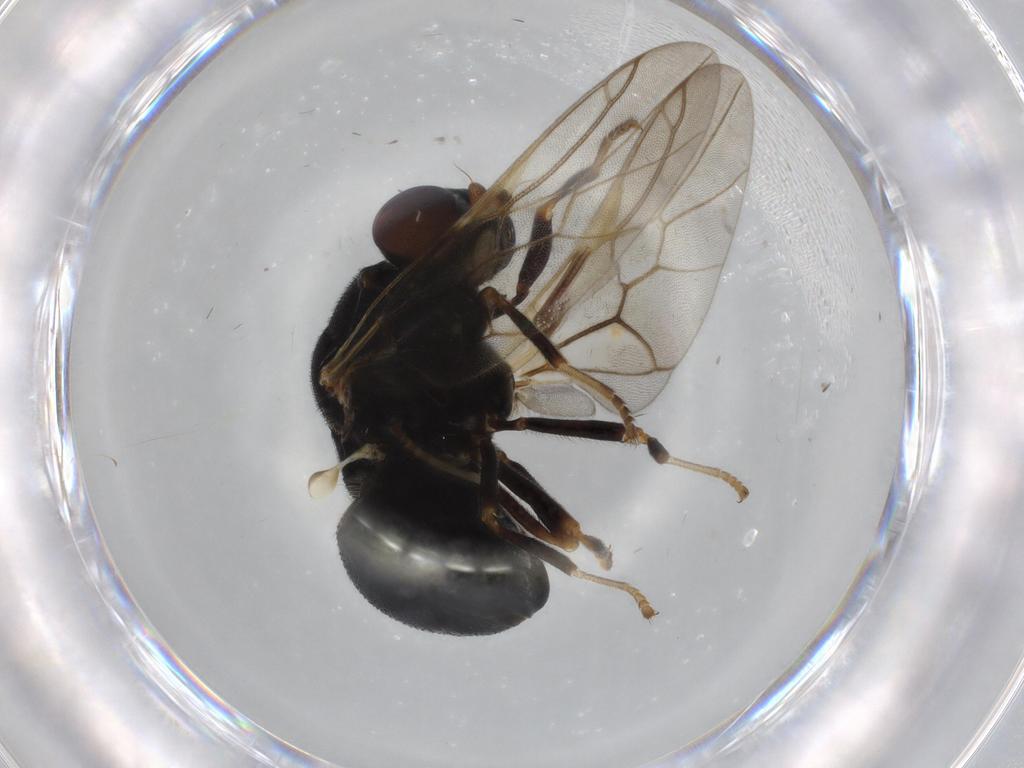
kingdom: Animalia
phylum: Arthropoda
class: Insecta
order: Diptera
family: Stratiomyidae
